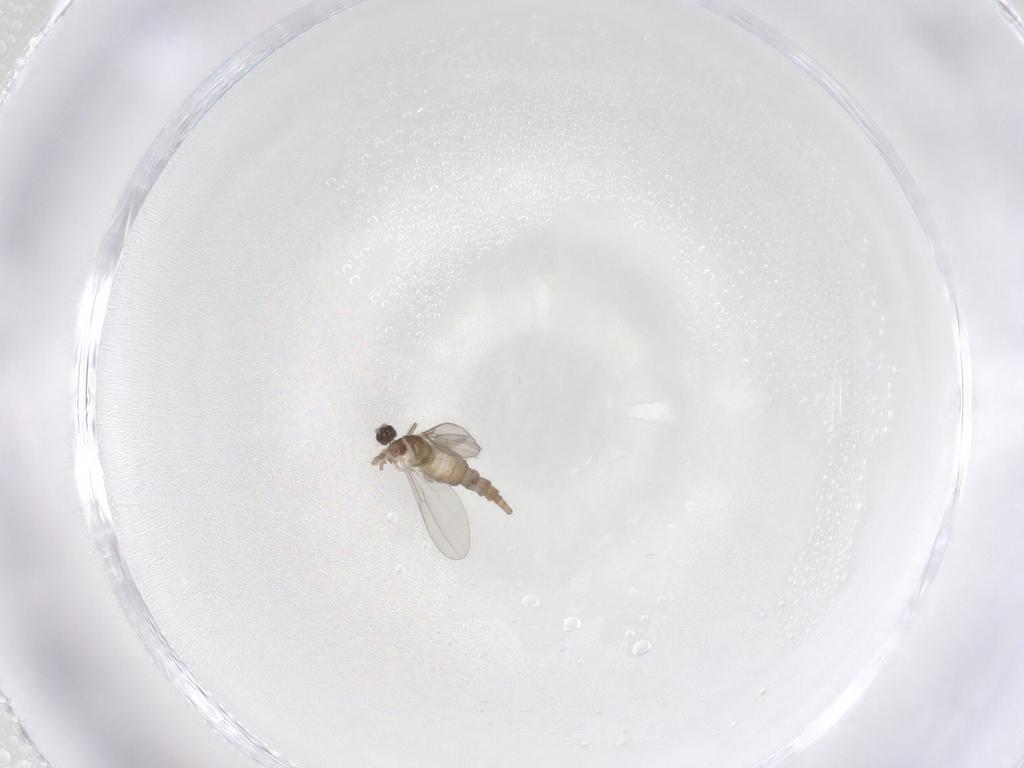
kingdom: Animalia
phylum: Arthropoda
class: Insecta
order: Diptera
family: Cecidomyiidae
